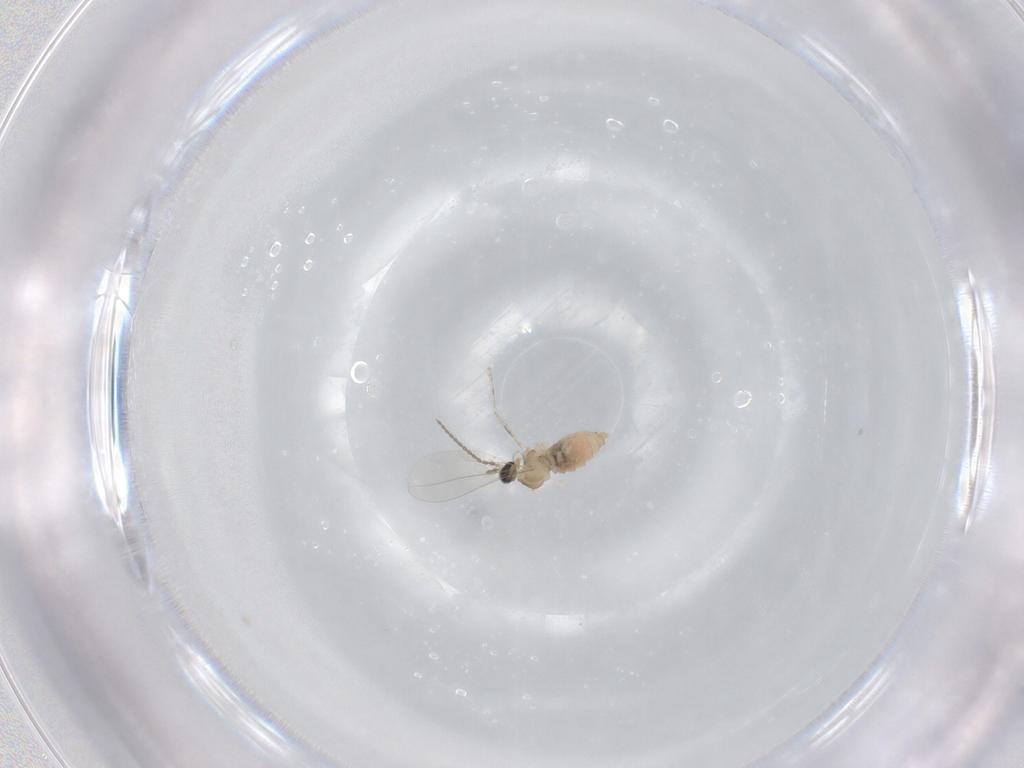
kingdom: Animalia
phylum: Arthropoda
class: Insecta
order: Diptera
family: Cecidomyiidae
